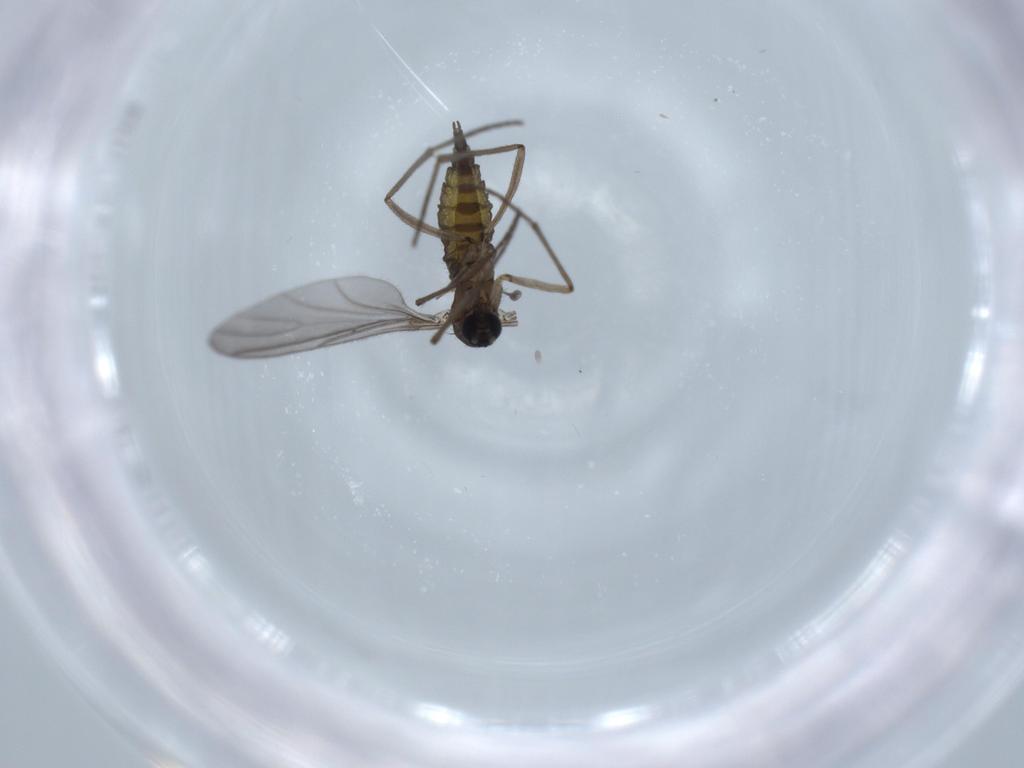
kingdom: Animalia
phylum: Arthropoda
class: Insecta
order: Diptera
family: Sciaridae
